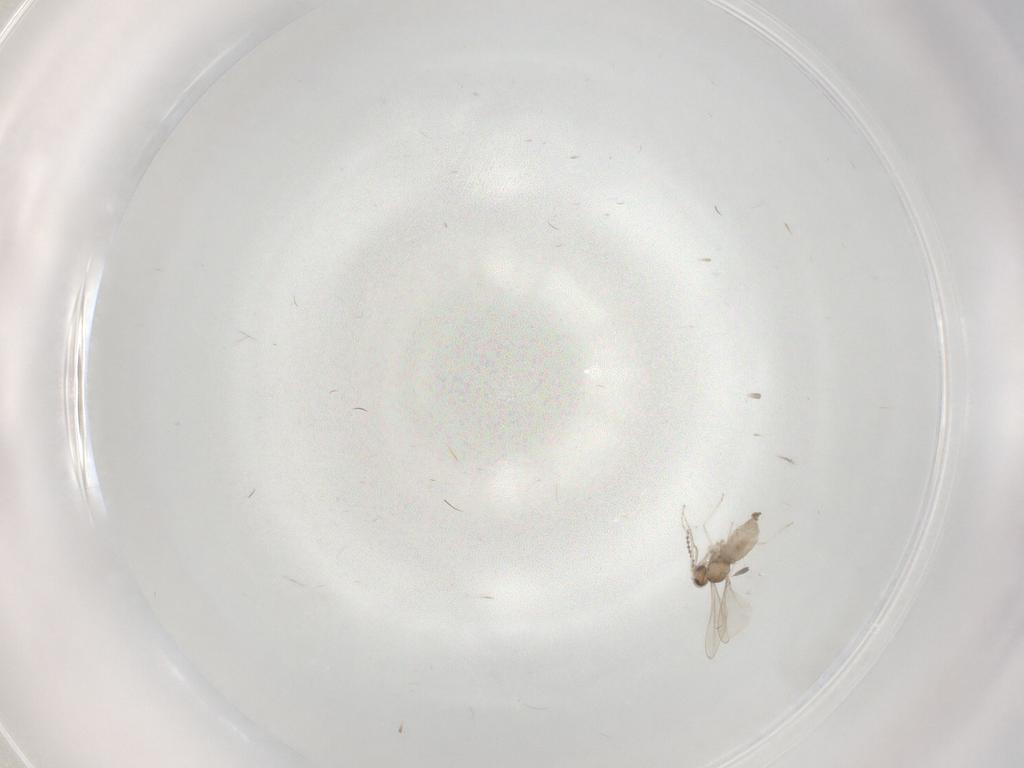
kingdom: Animalia
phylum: Arthropoda
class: Insecta
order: Diptera
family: Cecidomyiidae
